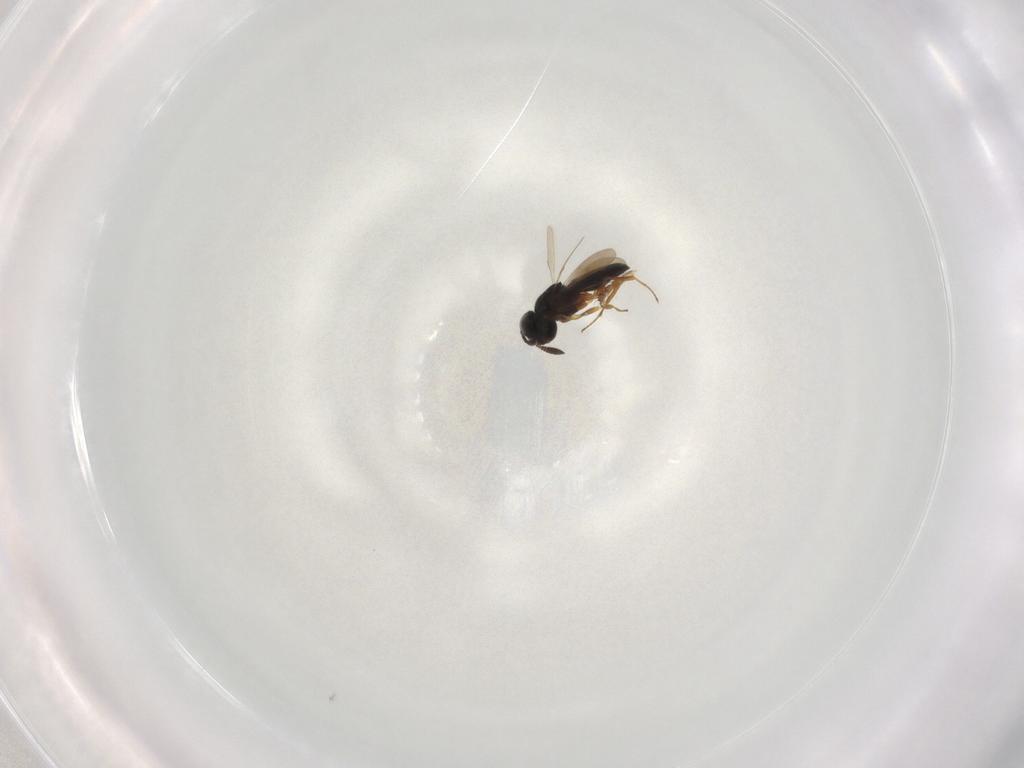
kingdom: Animalia
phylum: Arthropoda
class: Insecta
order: Hymenoptera
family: Scelionidae
